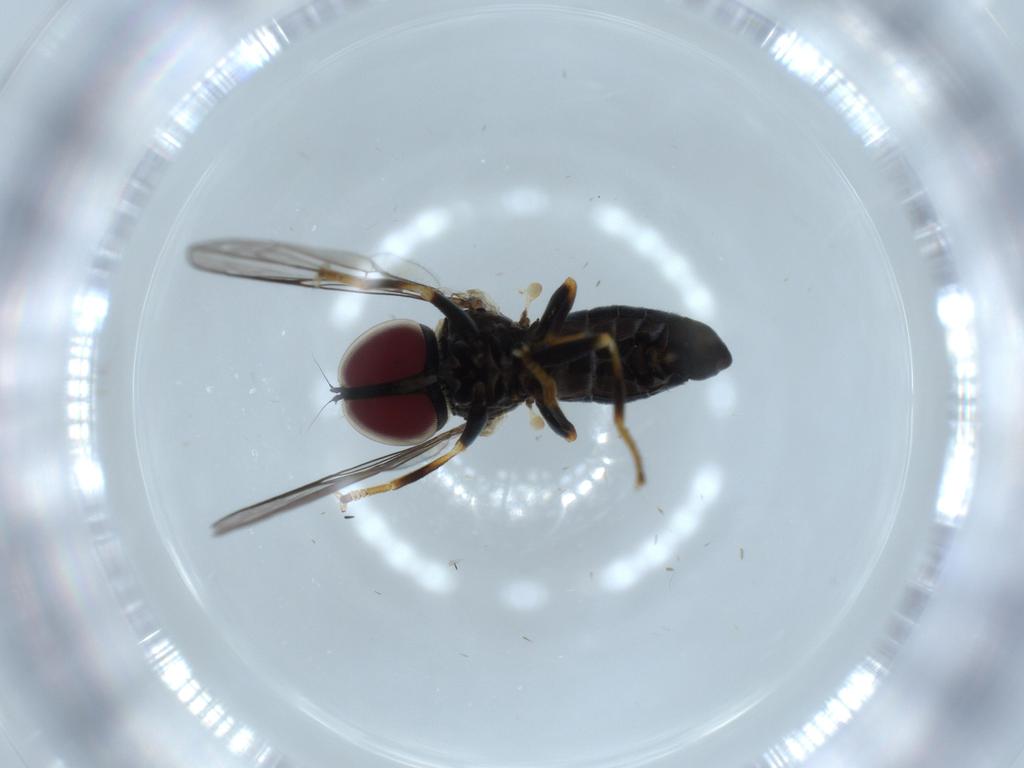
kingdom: Animalia
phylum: Arthropoda
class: Insecta
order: Diptera
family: Pipunculidae
